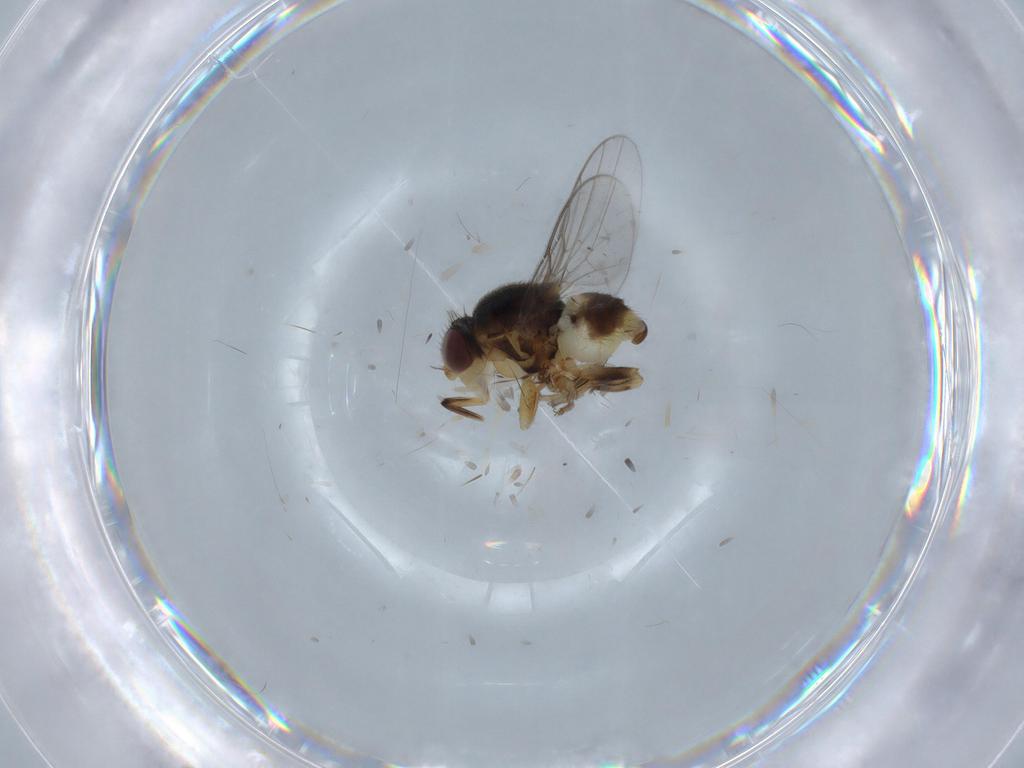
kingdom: Animalia
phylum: Arthropoda
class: Insecta
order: Diptera
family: Chloropidae
